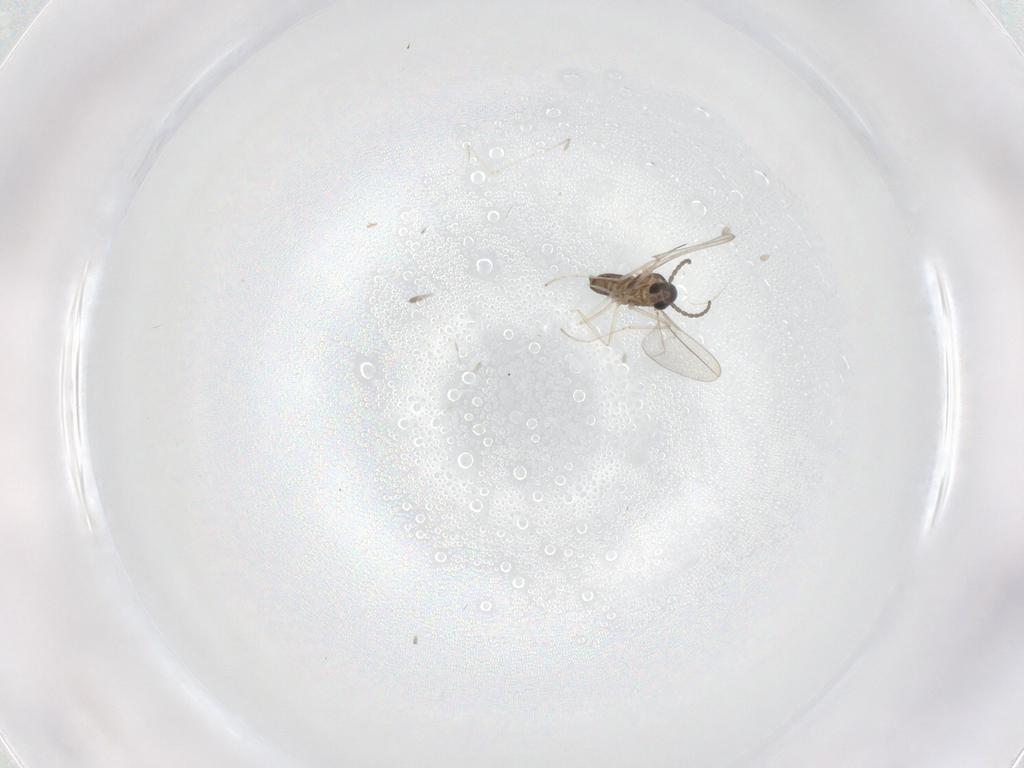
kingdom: Animalia
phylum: Arthropoda
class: Insecta
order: Diptera
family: Cecidomyiidae
